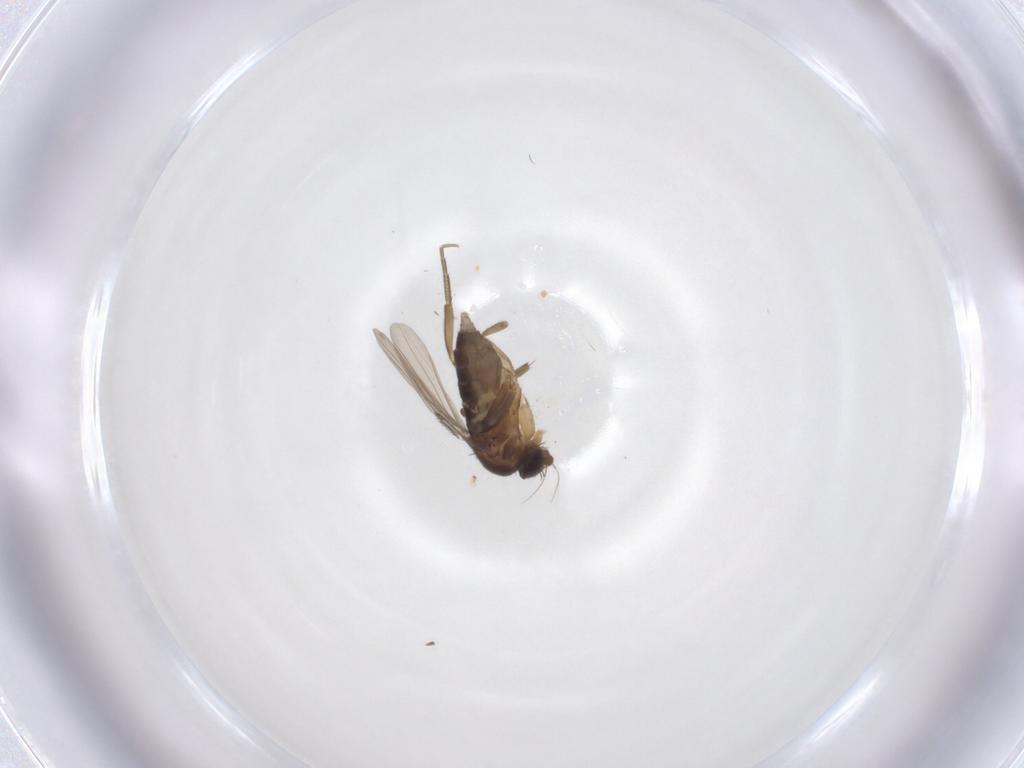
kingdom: Animalia
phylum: Arthropoda
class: Insecta
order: Diptera
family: Phoridae
